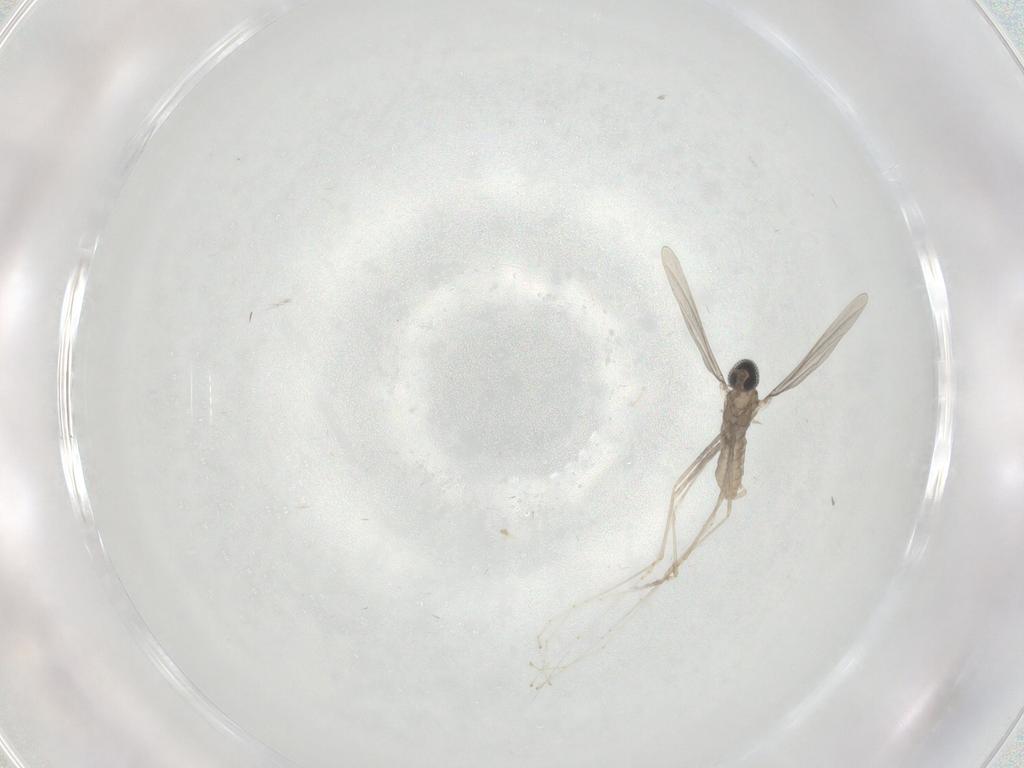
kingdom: Animalia
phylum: Arthropoda
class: Insecta
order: Diptera
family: Cecidomyiidae
